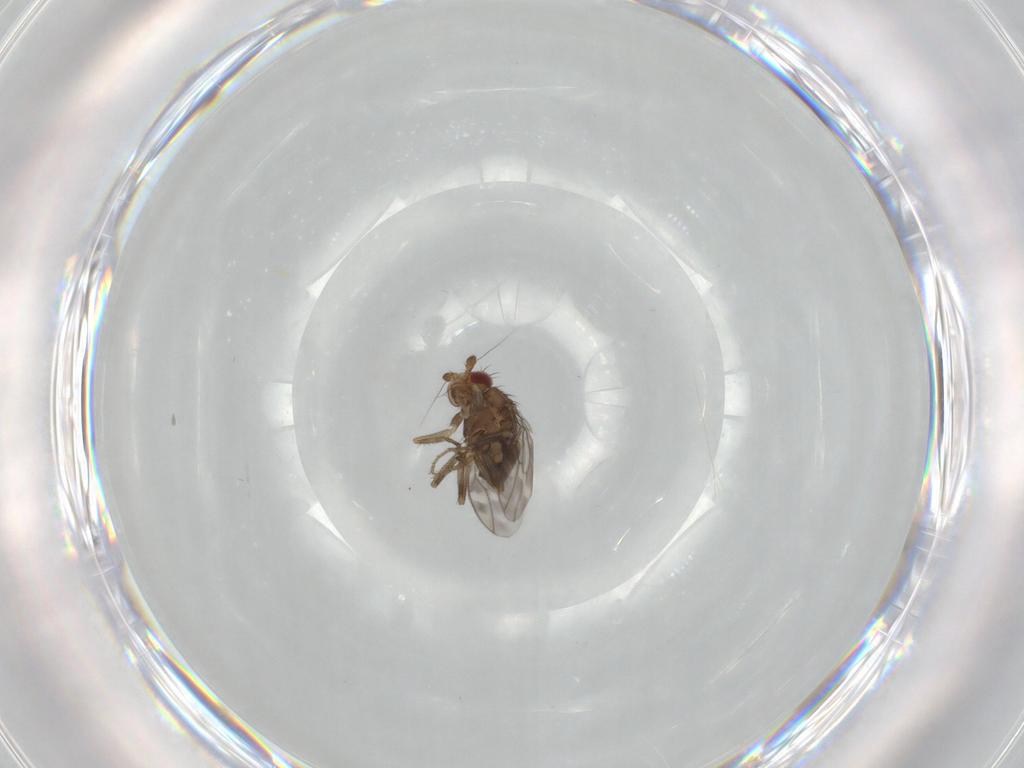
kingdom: Animalia
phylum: Arthropoda
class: Insecta
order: Diptera
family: Sphaeroceridae
